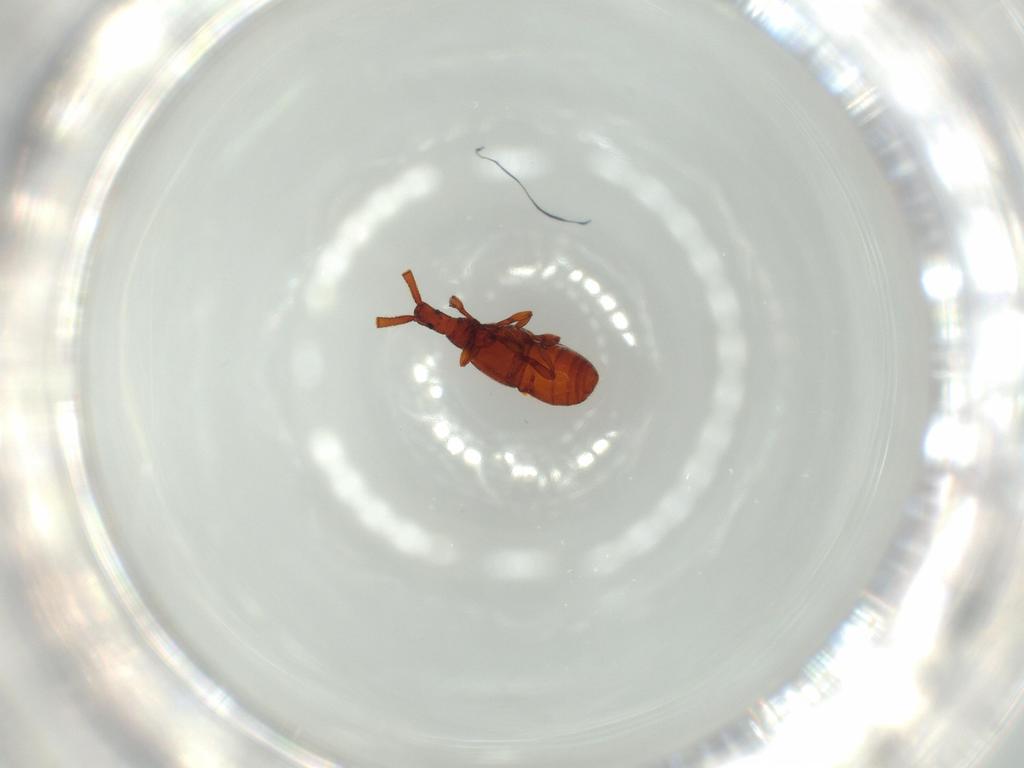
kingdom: Animalia
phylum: Arthropoda
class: Insecta
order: Coleoptera
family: Staphylinidae
